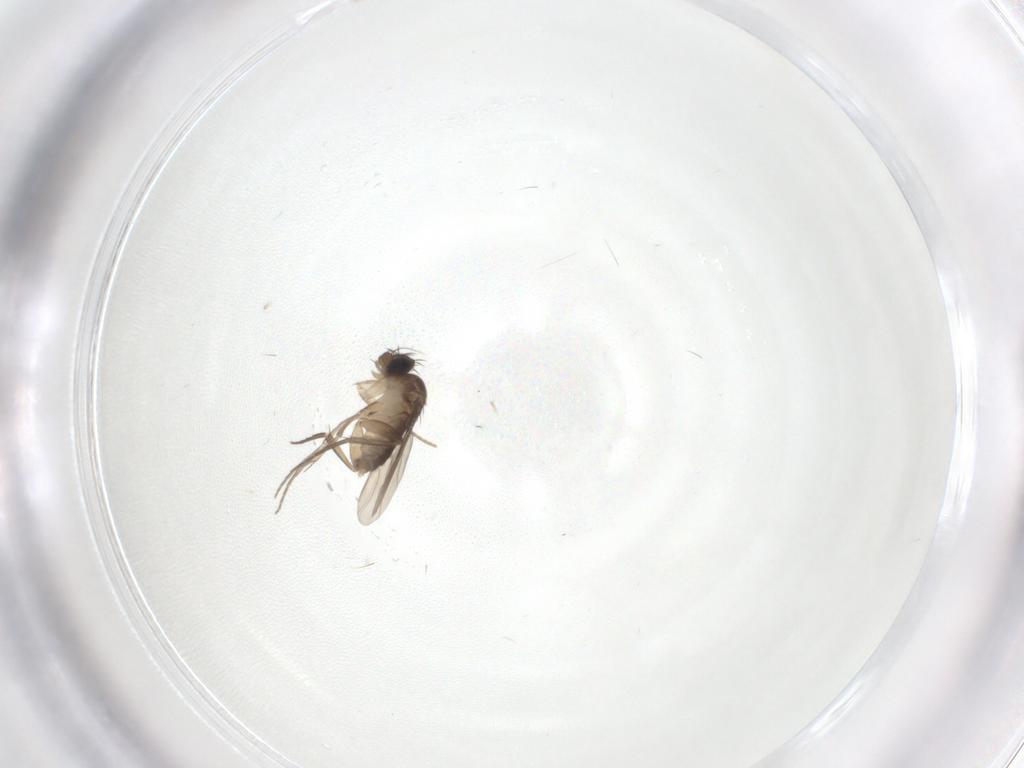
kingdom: Animalia
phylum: Arthropoda
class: Insecta
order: Diptera
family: Phoridae
